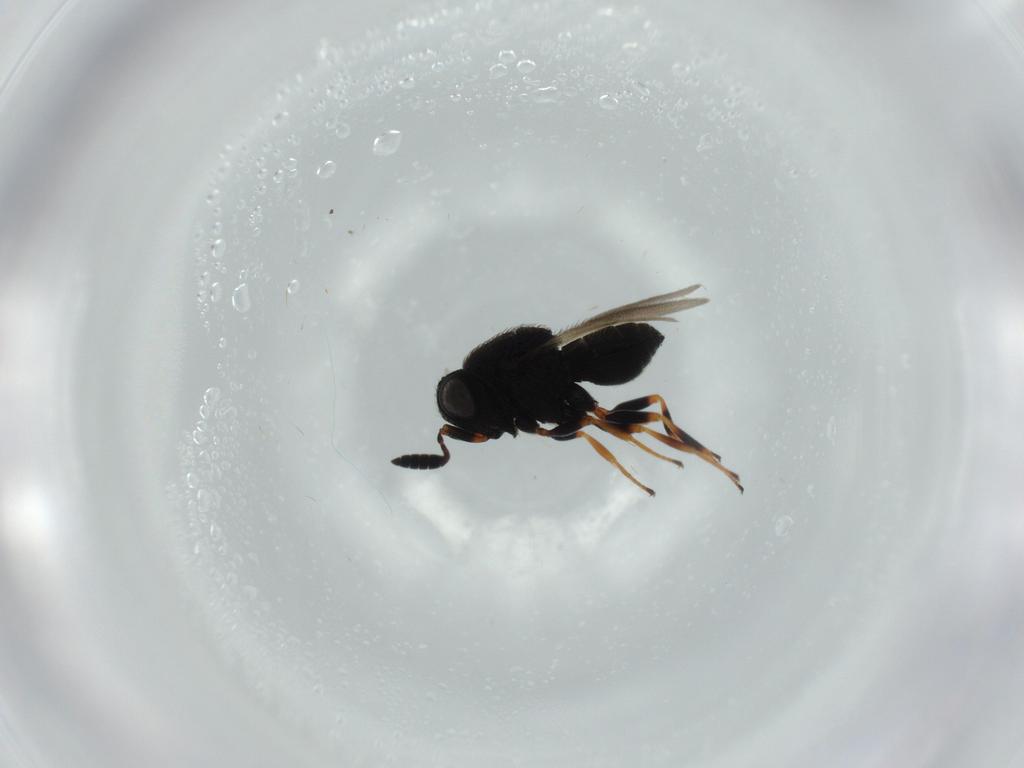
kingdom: Animalia
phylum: Arthropoda
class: Insecta
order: Hymenoptera
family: Scelionidae
